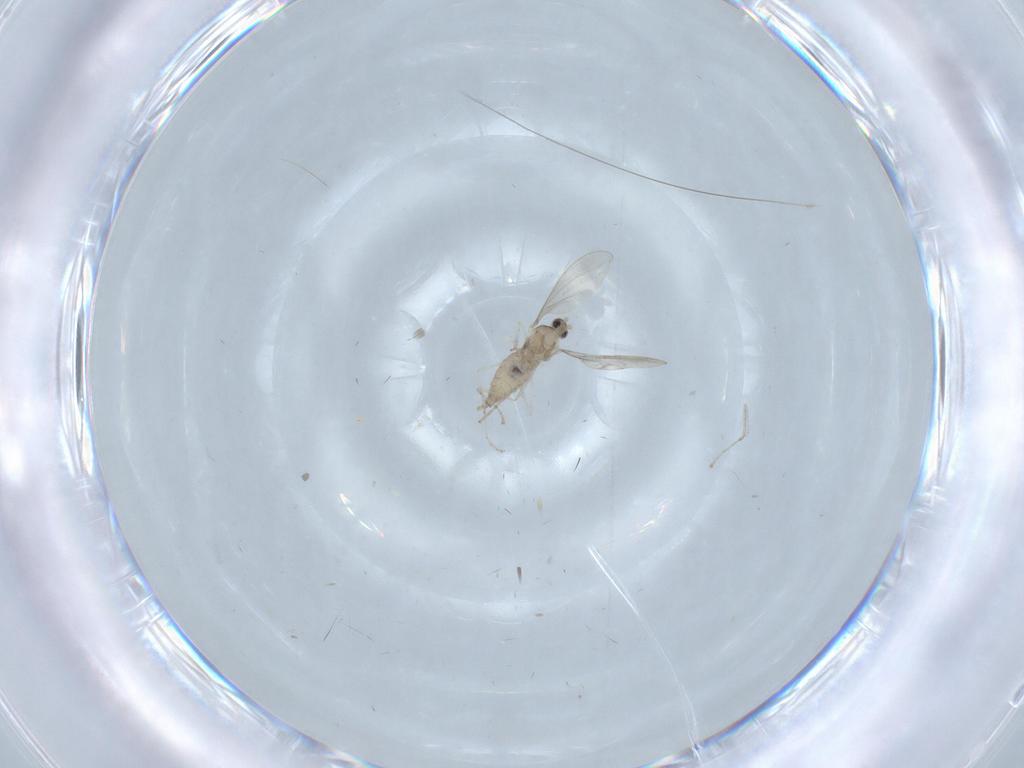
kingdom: Animalia
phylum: Arthropoda
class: Insecta
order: Diptera
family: Cecidomyiidae
